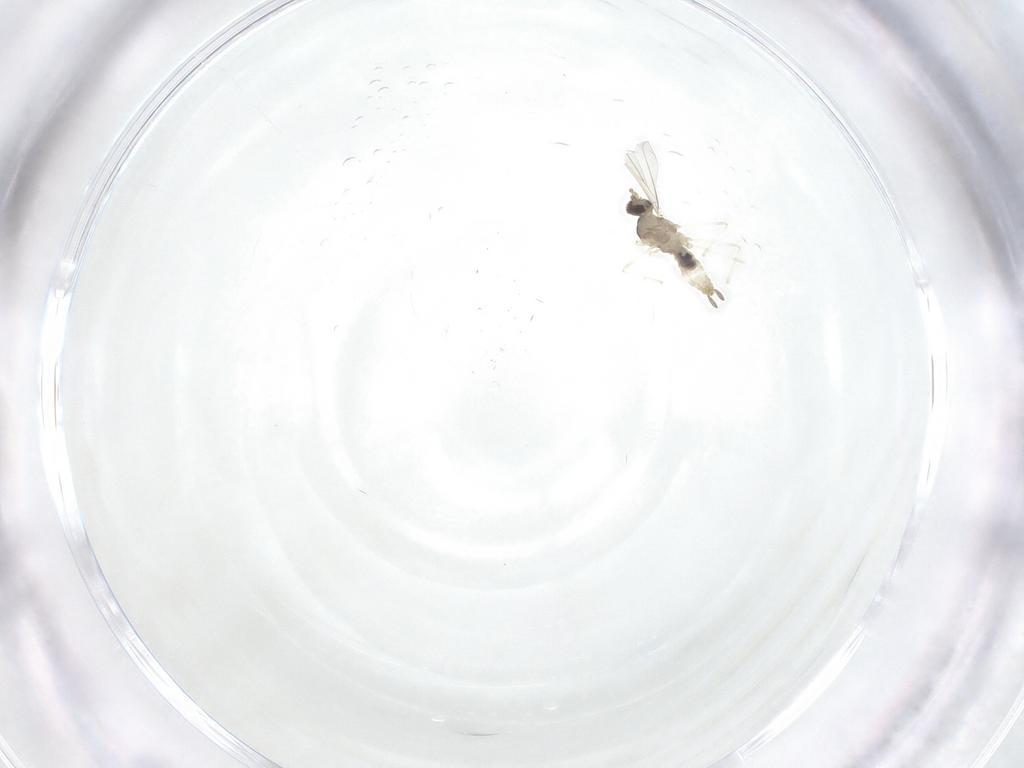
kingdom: Animalia
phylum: Arthropoda
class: Insecta
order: Diptera
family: Cecidomyiidae
